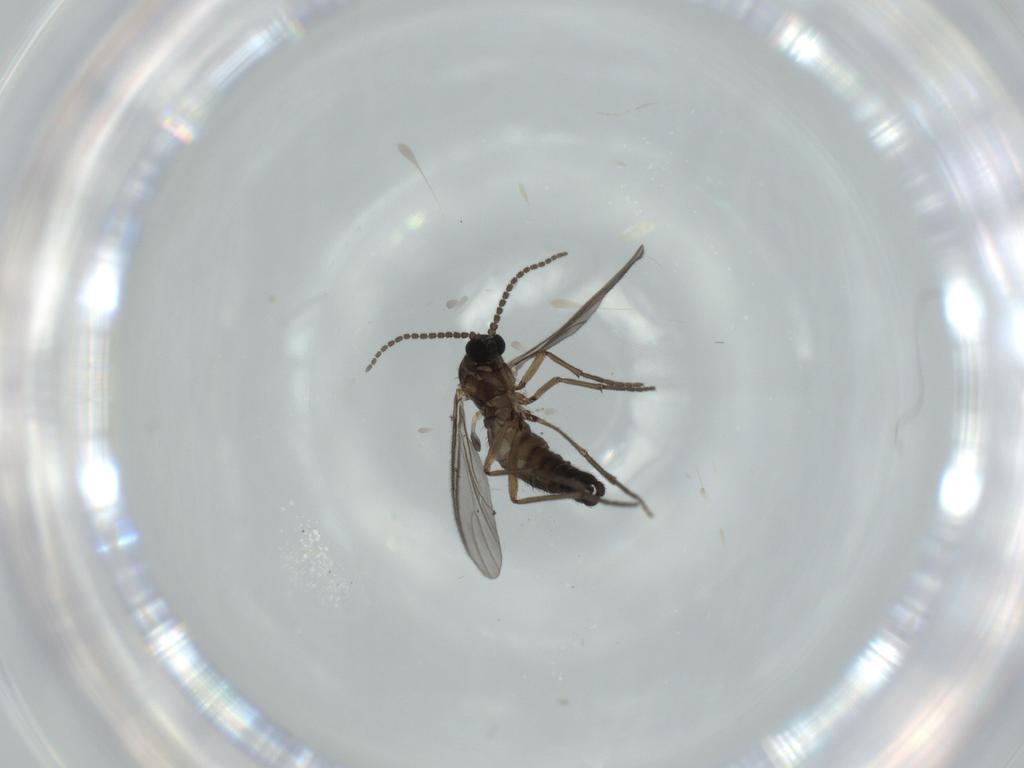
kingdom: Animalia
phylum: Arthropoda
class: Insecta
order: Diptera
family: Sciaridae
